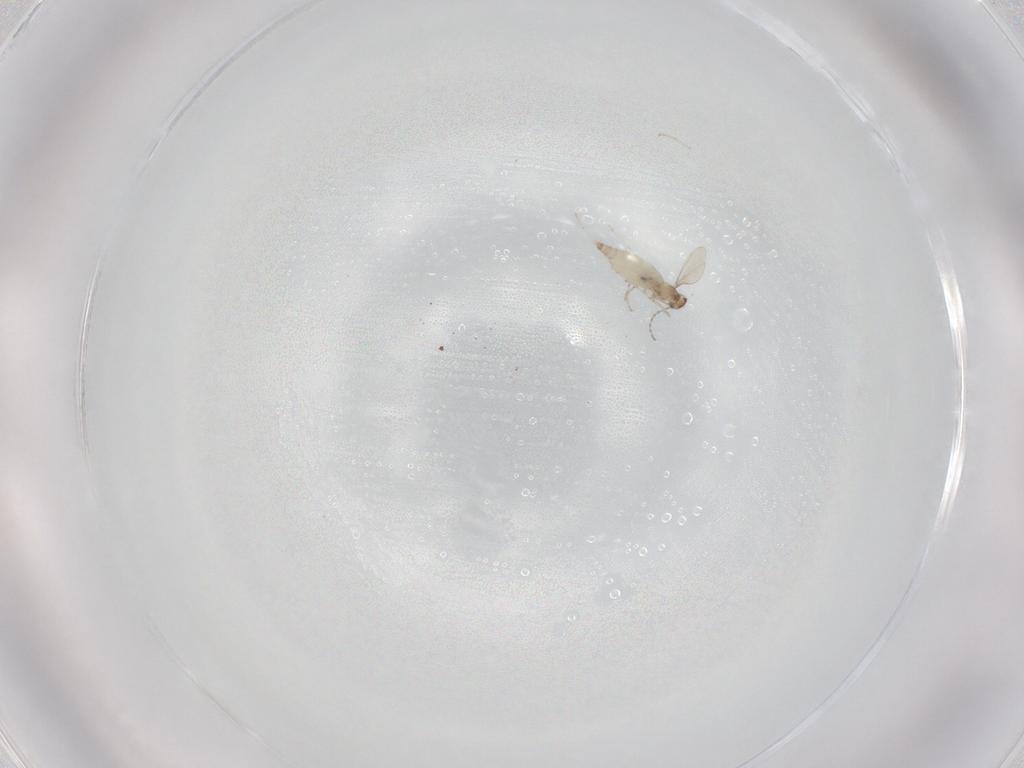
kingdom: Animalia
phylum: Arthropoda
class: Insecta
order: Diptera
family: Cecidomyiidae
